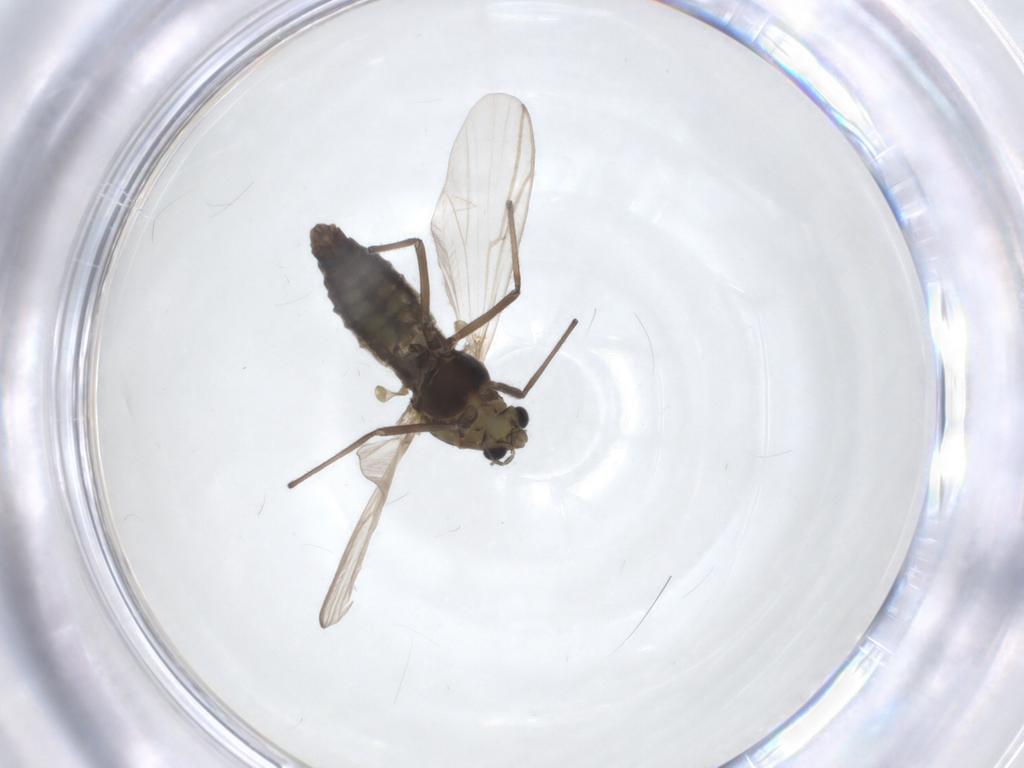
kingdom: Animalia
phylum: Arthropoda
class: Insecta
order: Diptera
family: Chironomidae
